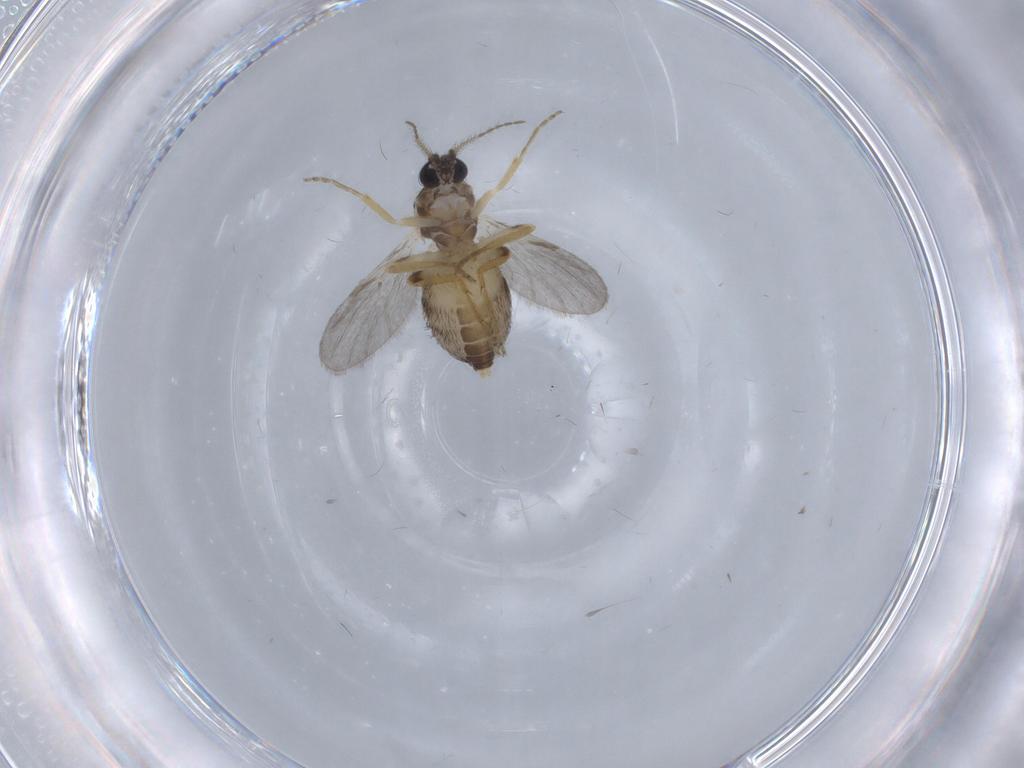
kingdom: Animalia
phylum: Arthropoda
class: Insecta
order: Diptera
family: Ceratopogonidae
